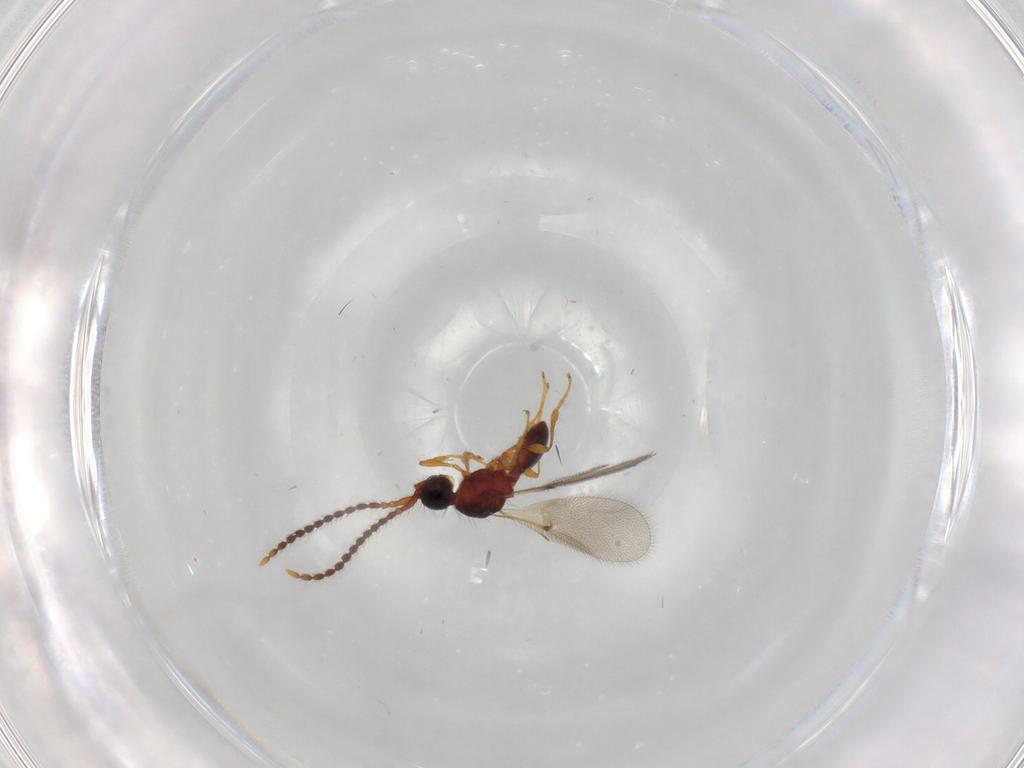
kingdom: Animalia
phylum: Arthropoda
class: Insecta
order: Hymenoptera
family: Diapriidae
